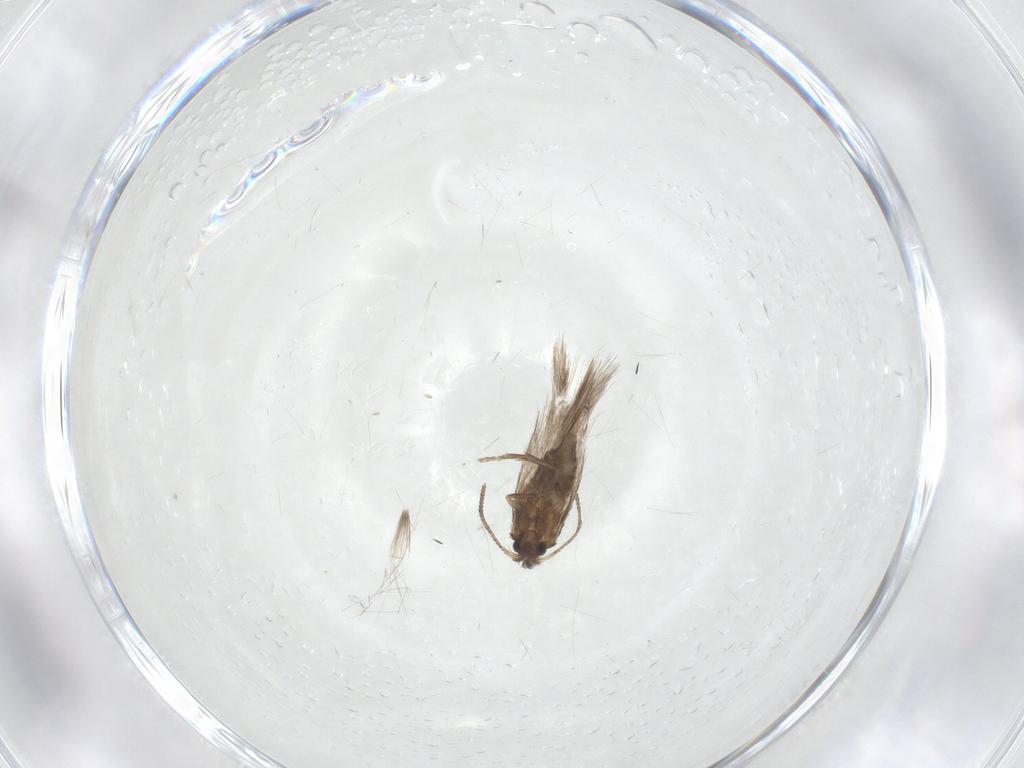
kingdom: Animalia
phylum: Arthropoda
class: Insecta
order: Lepidoptera
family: Nepticulidae
